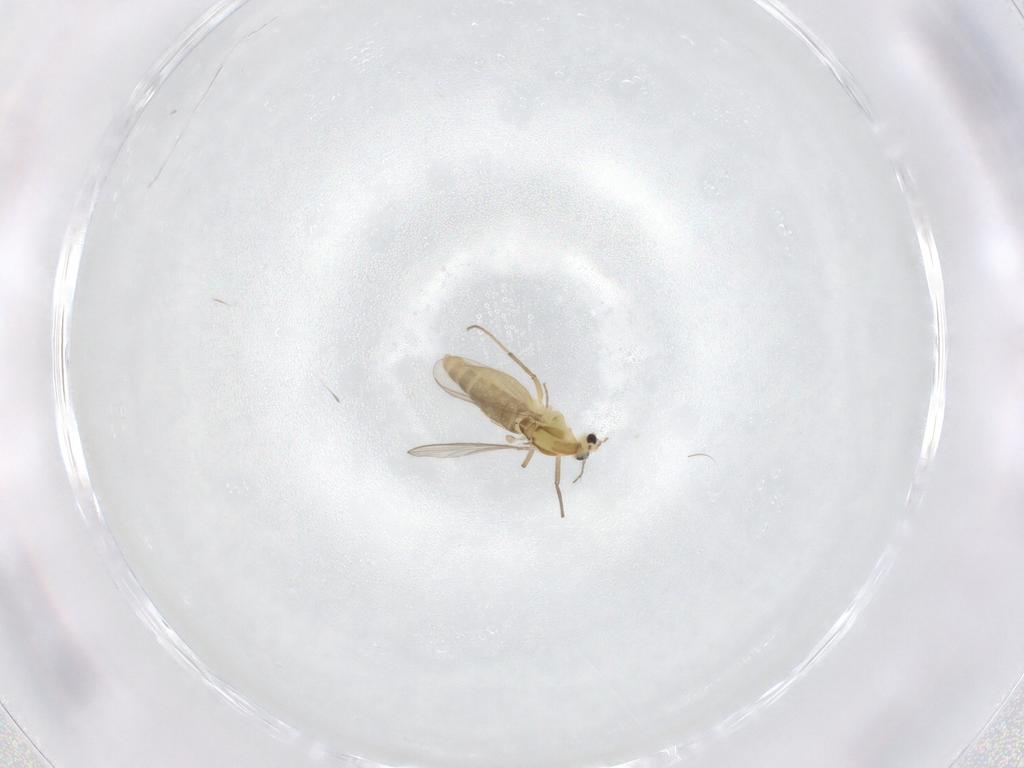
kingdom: Animalia
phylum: Arthropoda
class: Insecta
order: Diptera
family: Chironomidae
